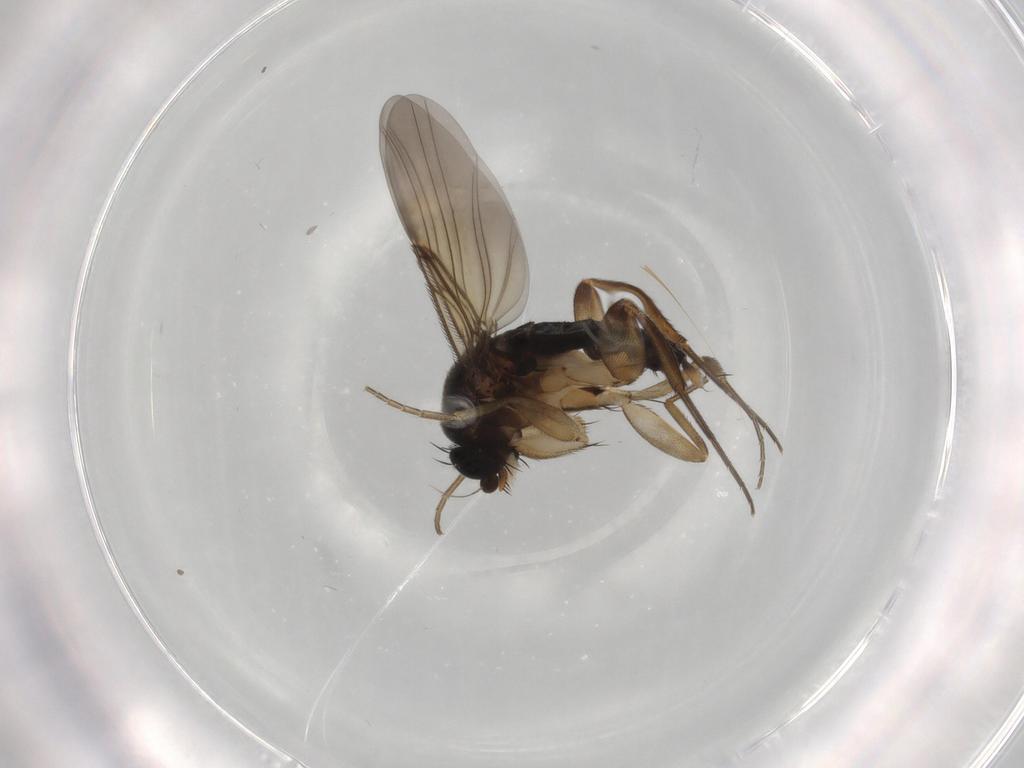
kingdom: Animalia
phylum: Arthropoda
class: Insecta
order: Diptera
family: Phoridae
